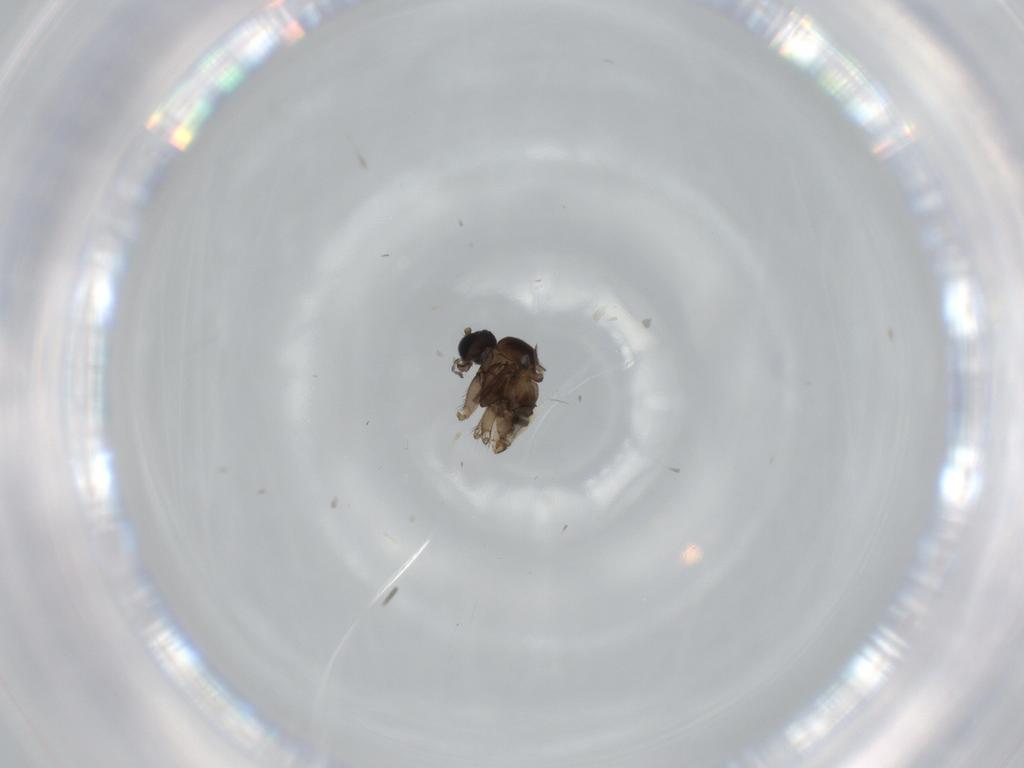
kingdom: Animalia
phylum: Arthropoda
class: Insecta
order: Diptera
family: Sciaridae
